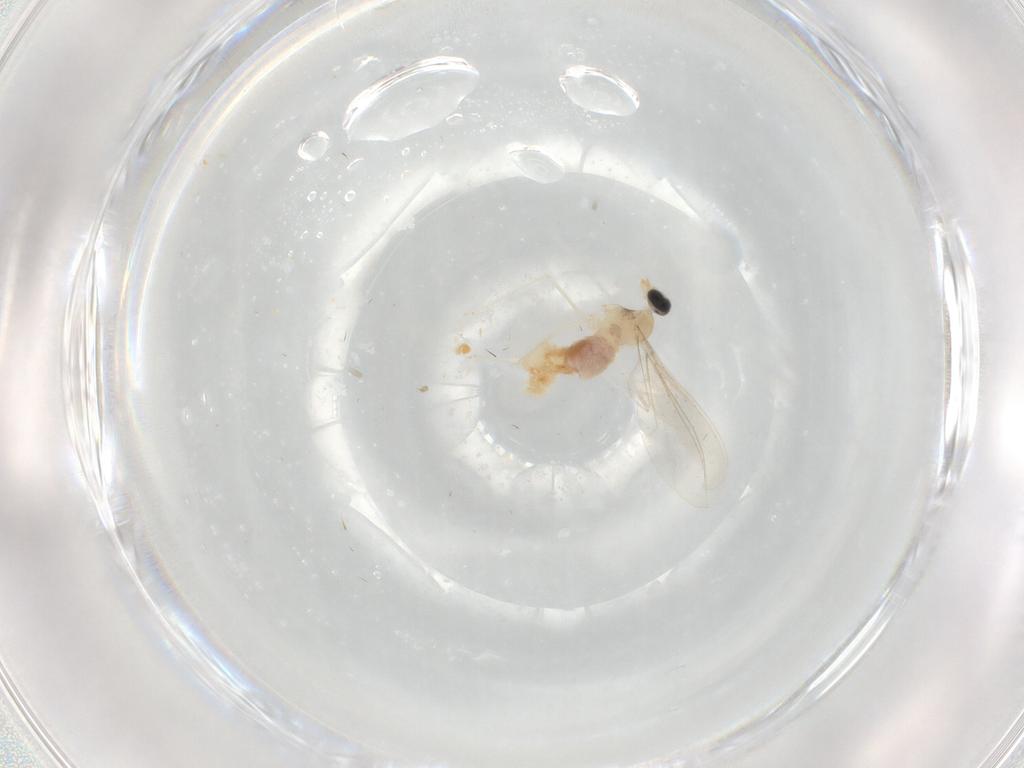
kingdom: Animalia
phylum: Arthropoda
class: Insecta
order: Diptera
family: Cecidomyiidae
